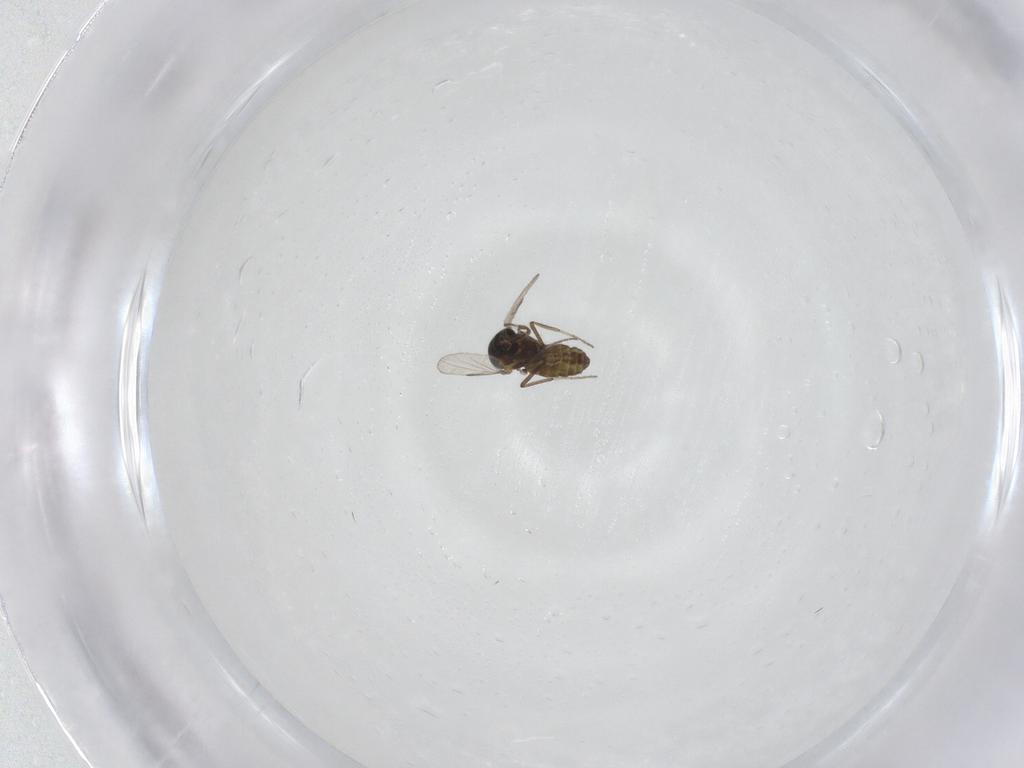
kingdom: Animalia
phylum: Arthropoda
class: Insecta
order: Diptera
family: Ceratopogonidae
